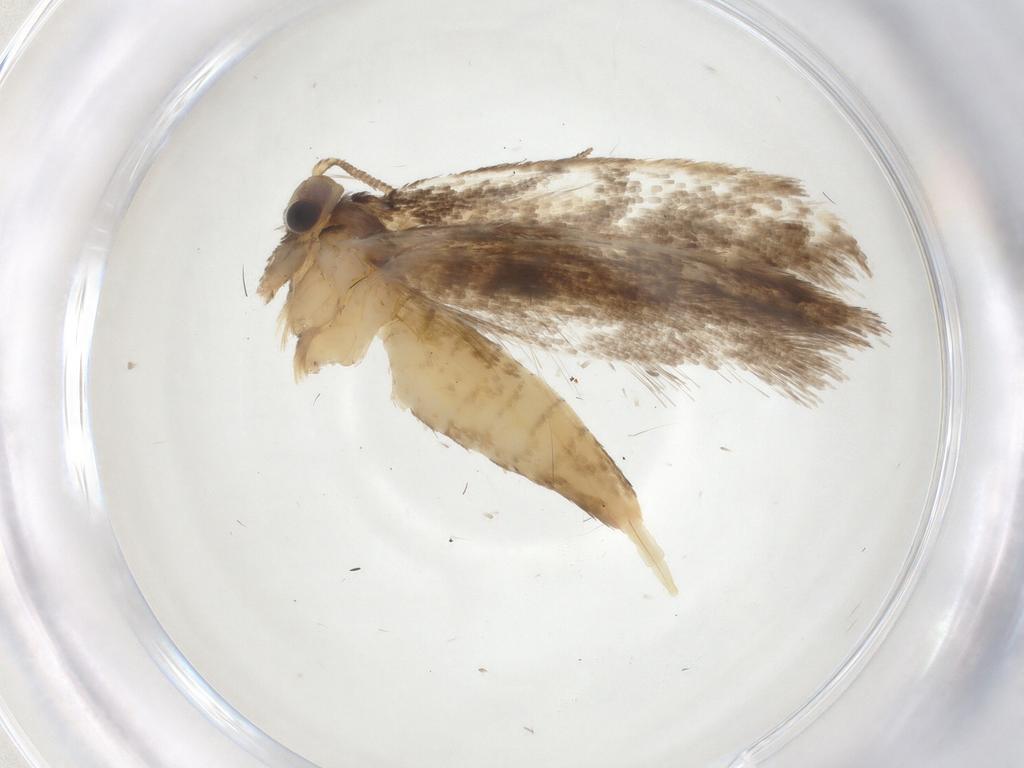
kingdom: Animalia
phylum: Arthropoda
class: Insecta
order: Lepidoptera
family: Tineidae
